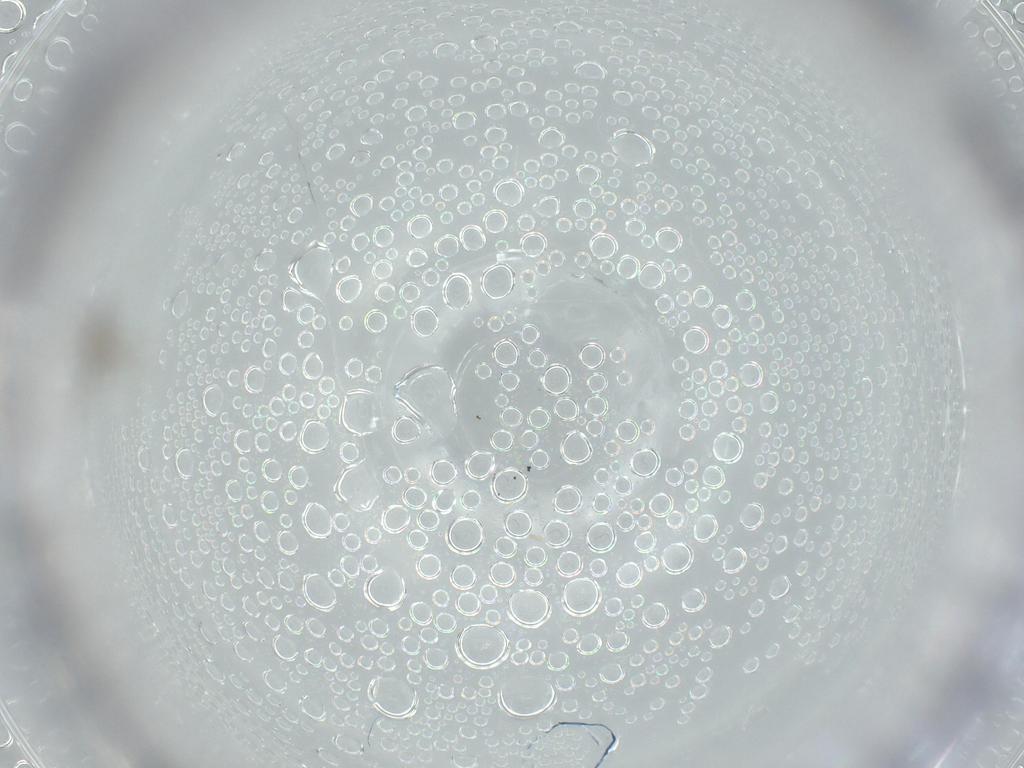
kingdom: Animalia
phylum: Arthropoda
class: Insecta
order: Diptera
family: Cecidomyiidae
